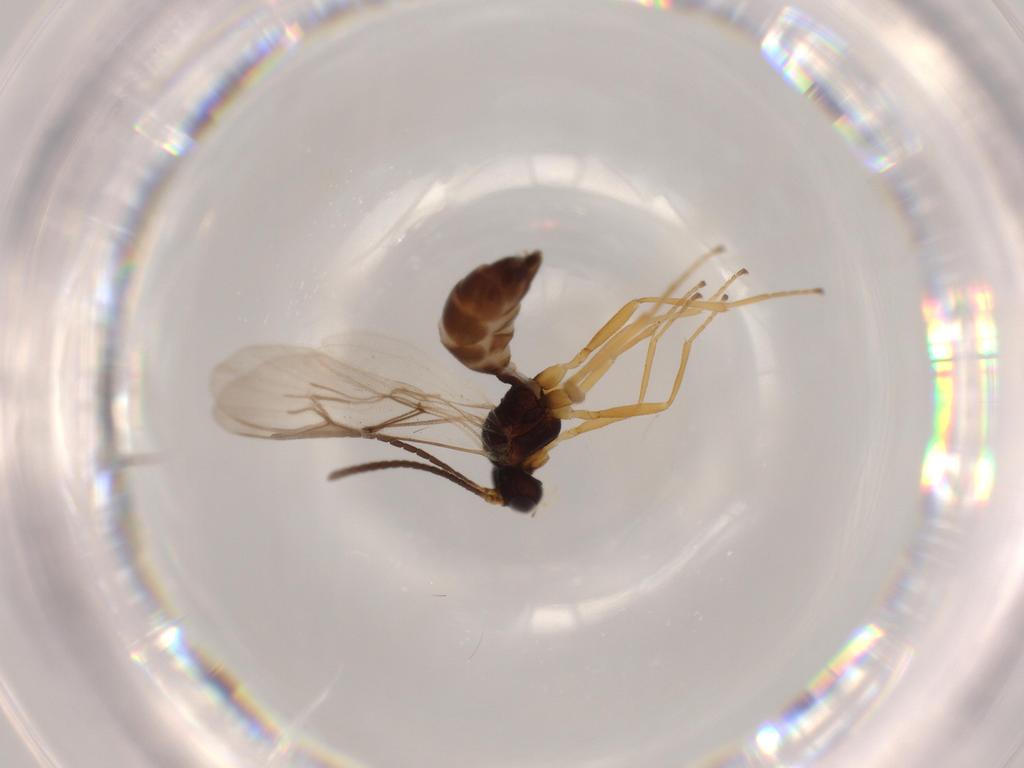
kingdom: Animalia
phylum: Arthropoda
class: Insecta
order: Hymenoptera
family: Braconidae
